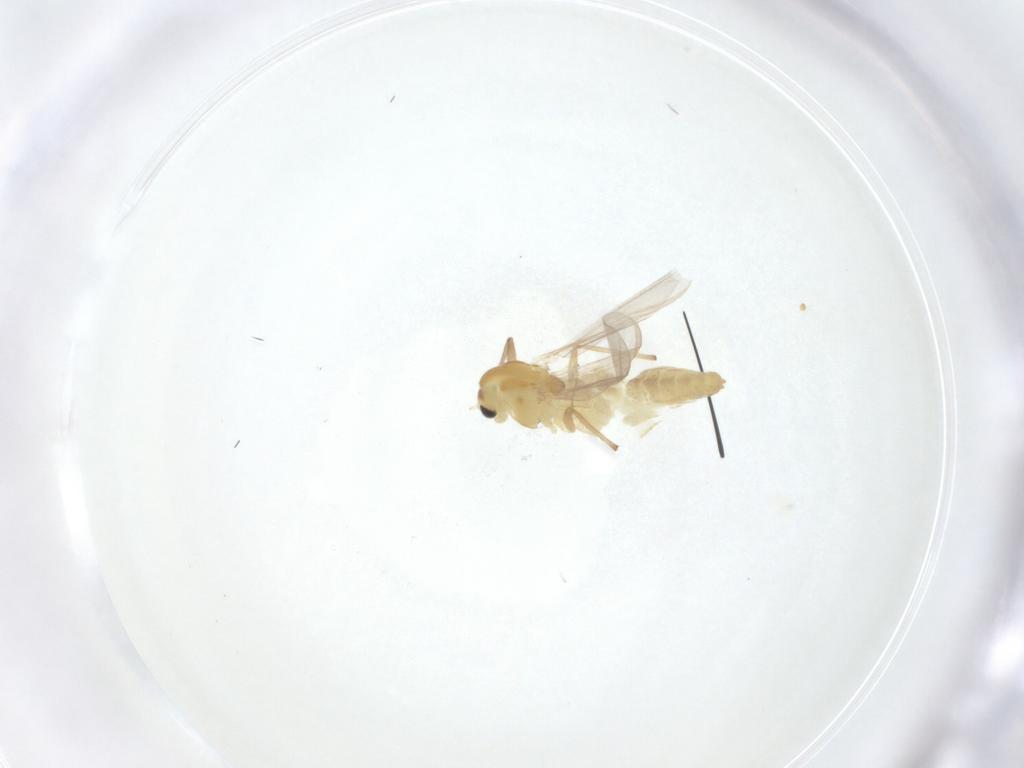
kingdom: Animalia
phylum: Arthropoda
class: Insecta
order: Diptera
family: Chironomidae
